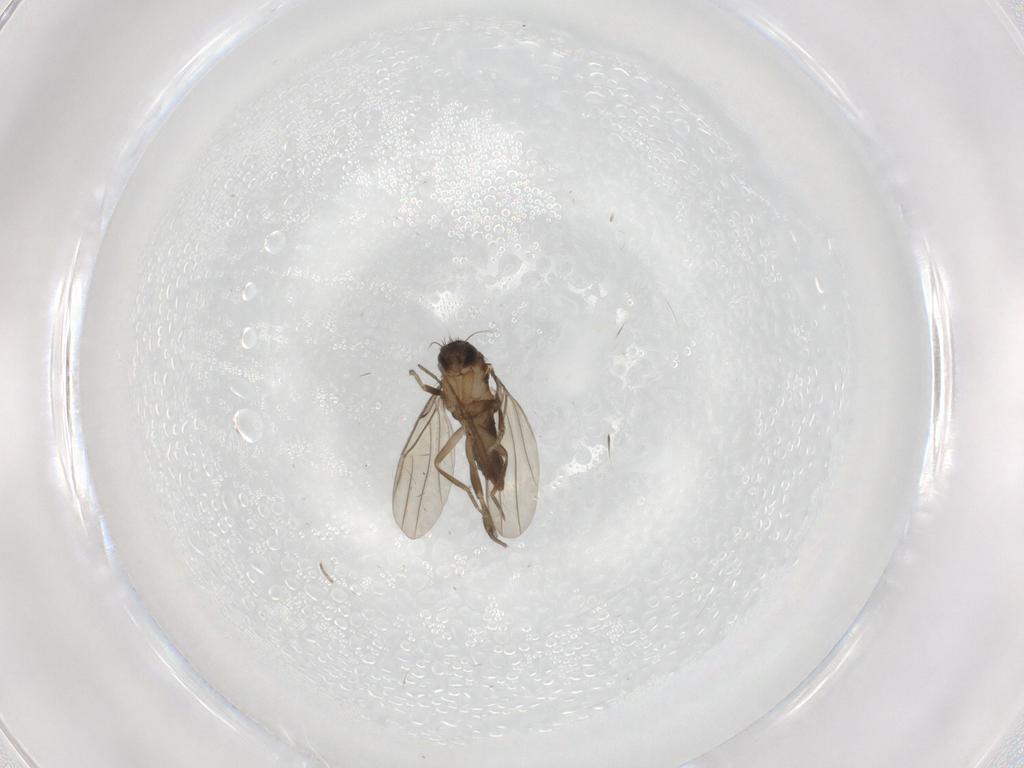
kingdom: Animalia
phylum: Arthropoda
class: Insecta
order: Diptera
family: Phoridae
